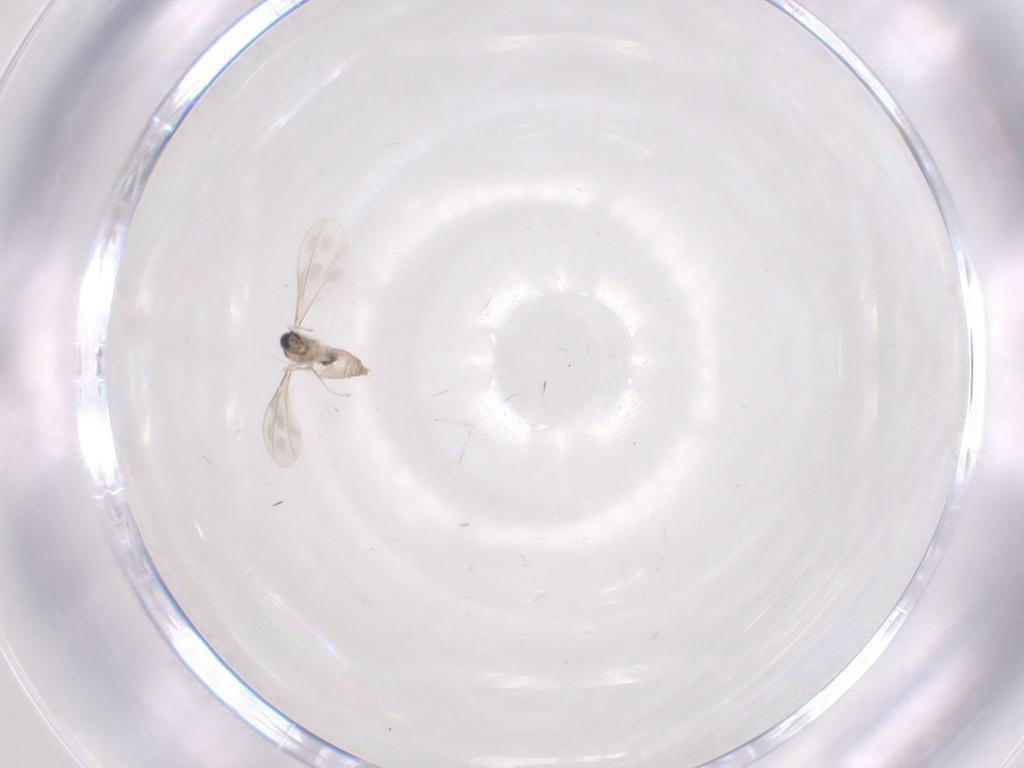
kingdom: Animalia
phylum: Arthropoda
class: Insecta
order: Diptera
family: Cecidomyiidae
